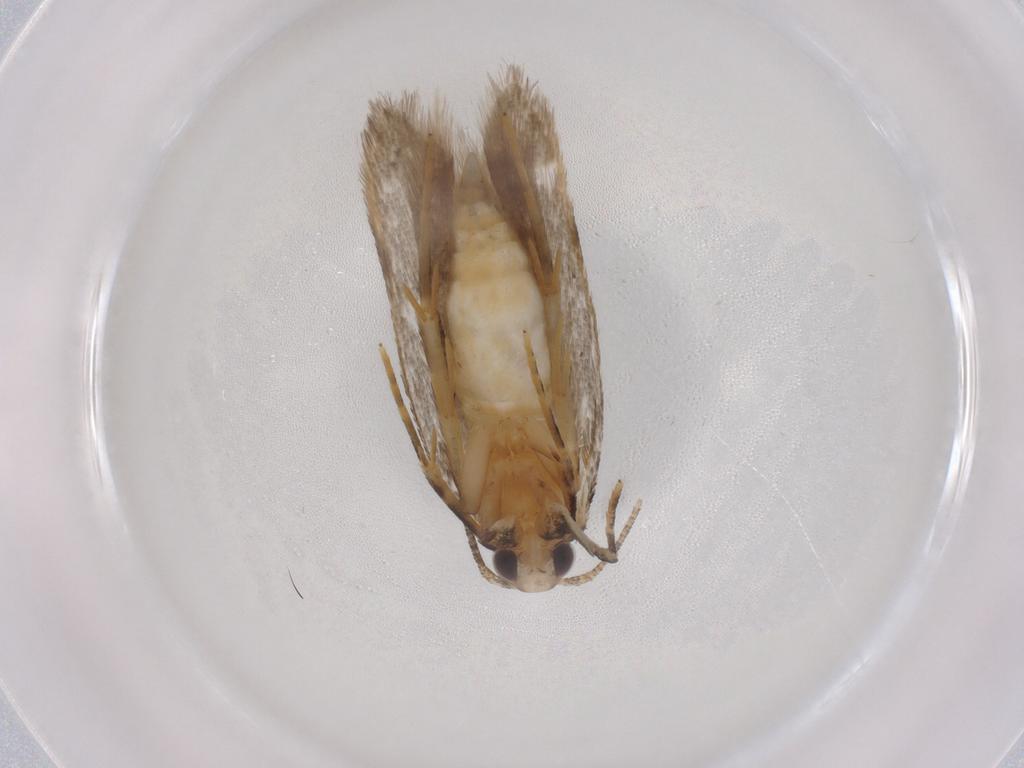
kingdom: Animalia
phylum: Arthropoda
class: Insecta
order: Lepidoptera
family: Autostichidae
